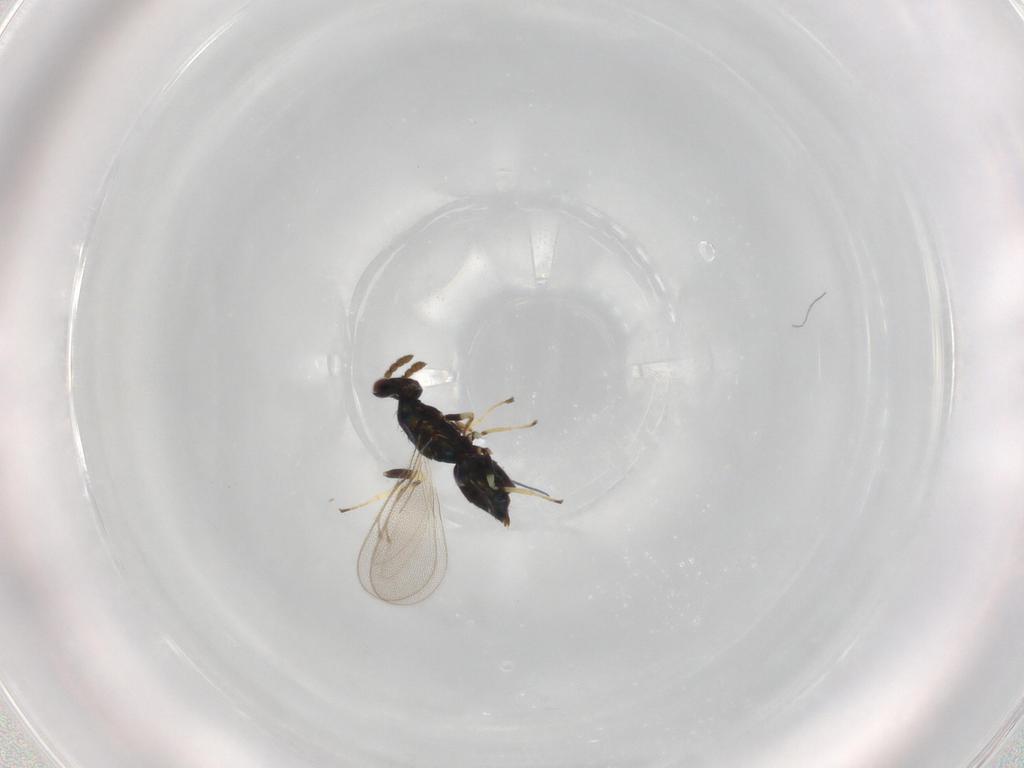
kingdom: Animalia
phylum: Arthropoda
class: Insecta
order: Hymenoptera
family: Eulophidae
